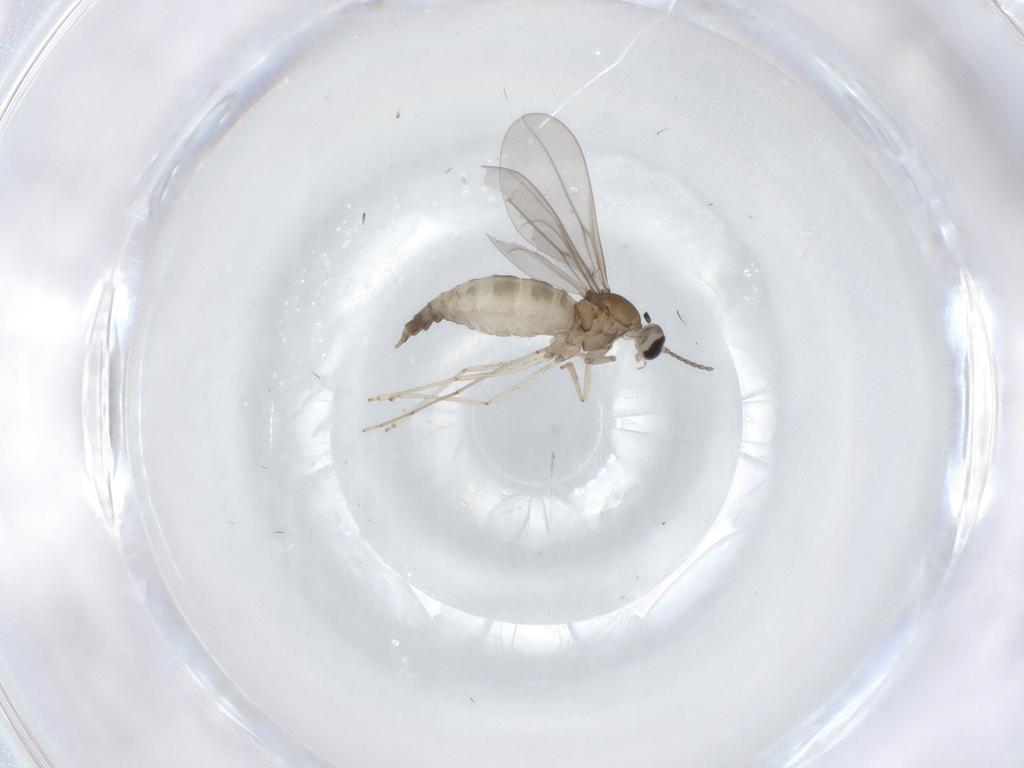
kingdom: Animalia
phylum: Arthropoda
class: Insecta
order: Diptera
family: Cecidomyiidae
